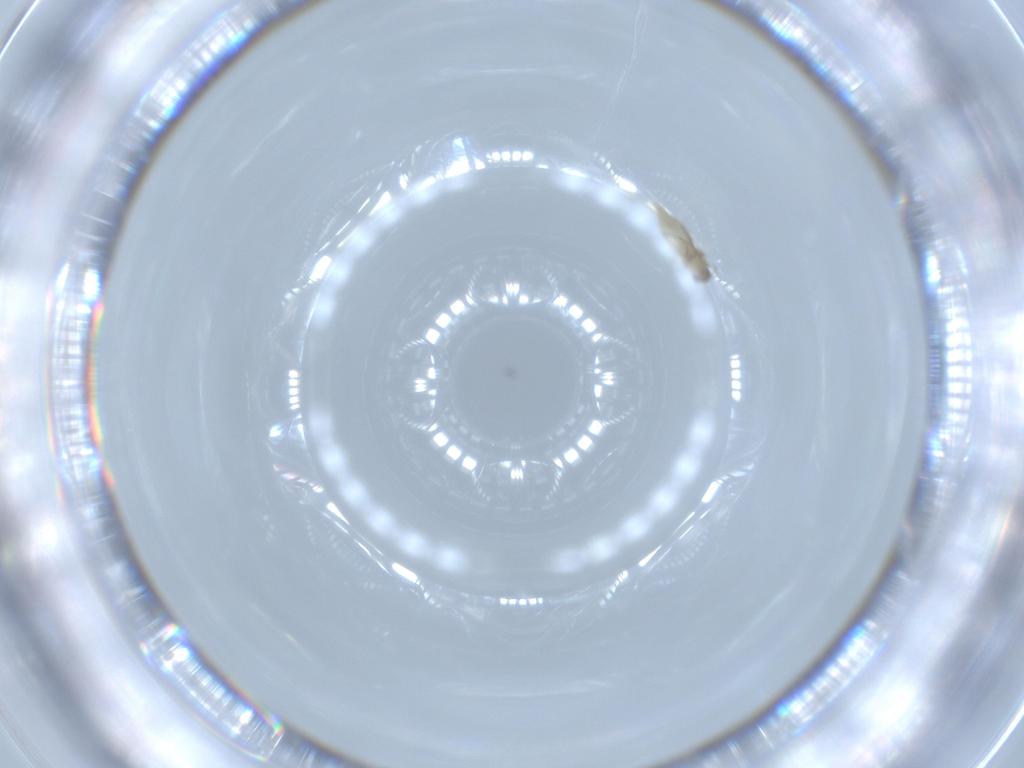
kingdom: Animalia
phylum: Arthropoda
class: Insecta
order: Diptera
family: Cecidomyiidae
